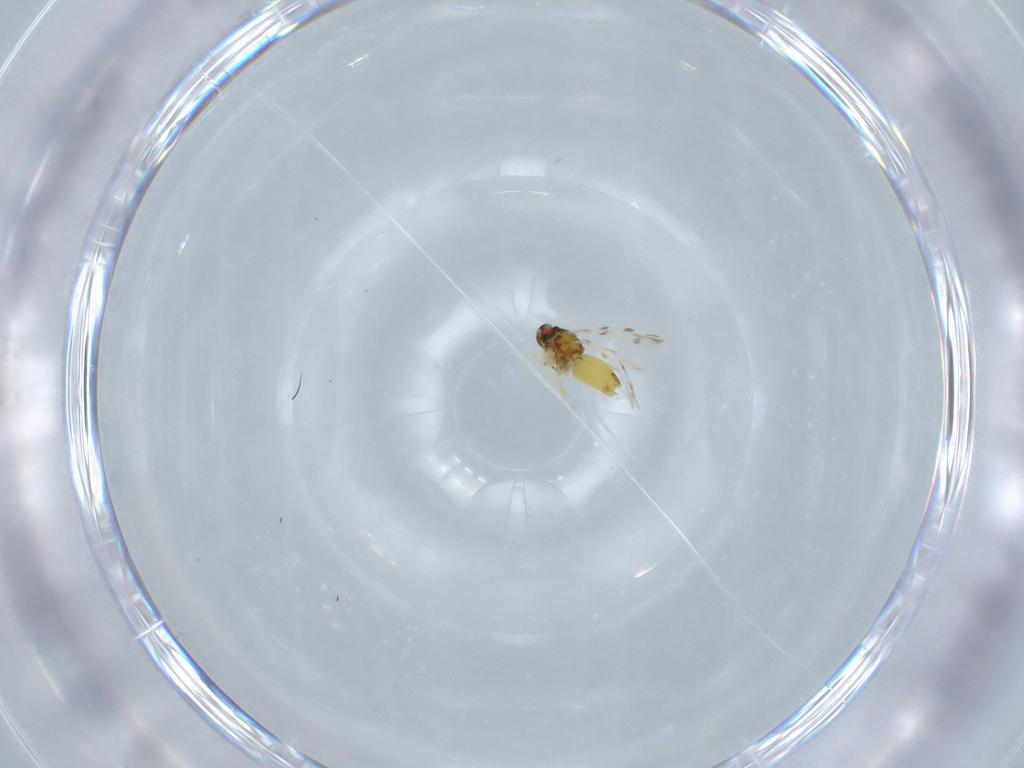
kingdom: Animalia
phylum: Arthropoda
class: Insecta
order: Hemiptera
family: Aleyrodidae
